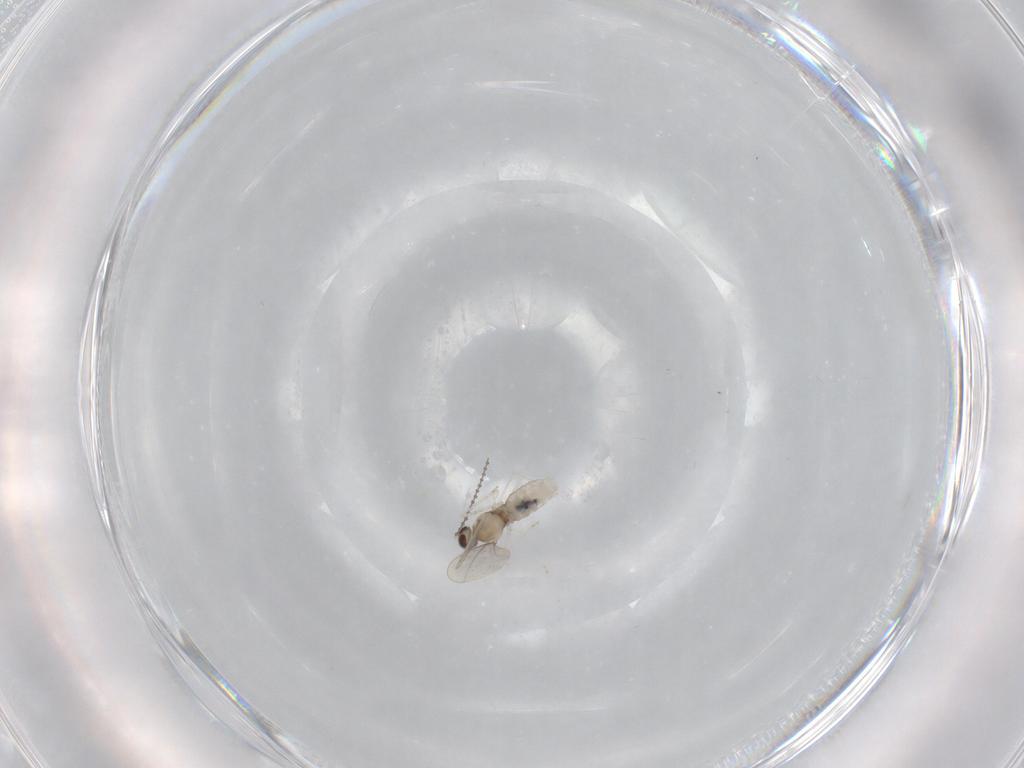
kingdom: Animalia
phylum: Arthropoda
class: Insecta
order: Diptera
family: Cecidomyiidae
